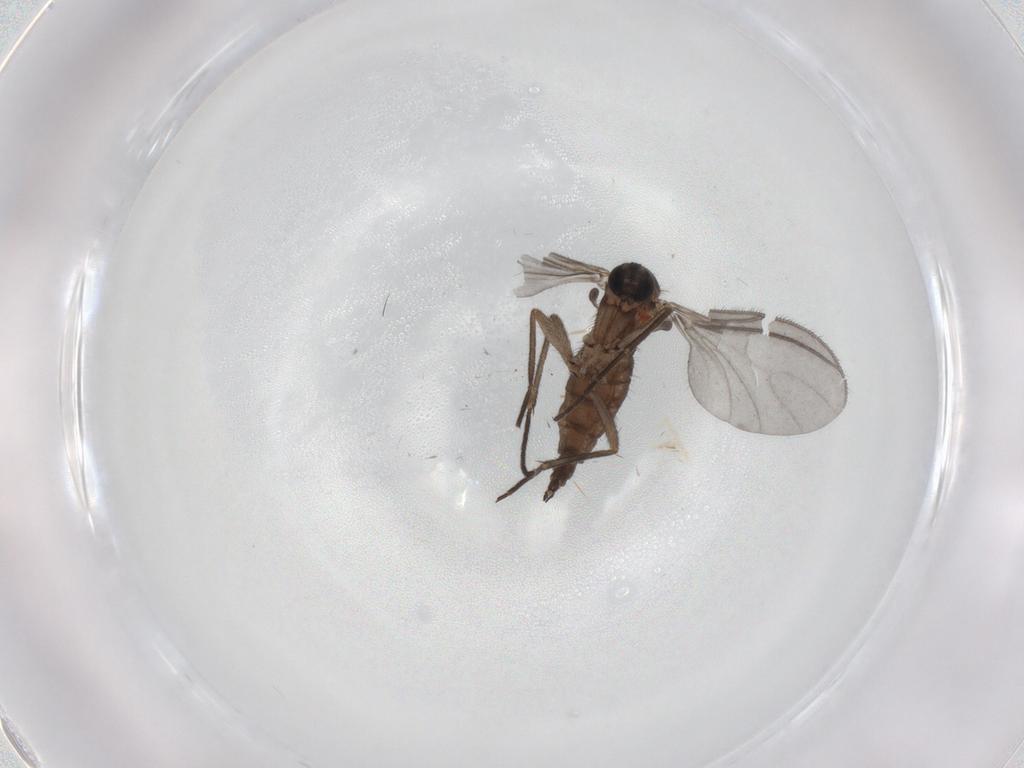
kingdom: Animalia
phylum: Arthropoda
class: Insecta
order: Diptera
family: Sciaridae
